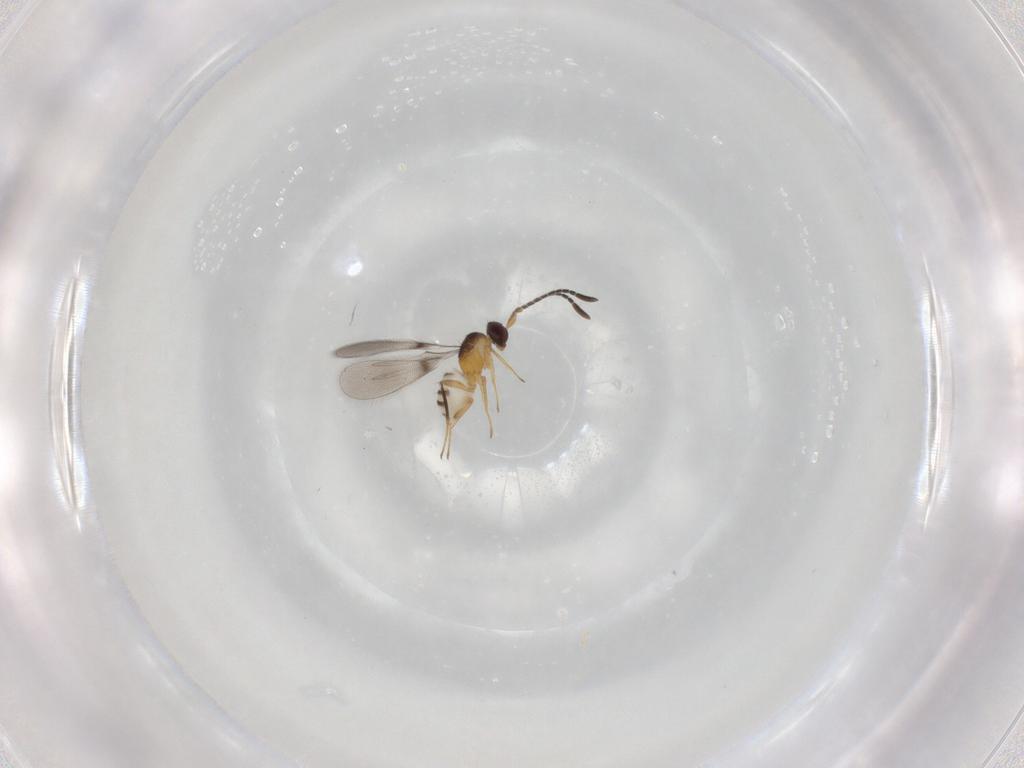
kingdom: Animalia
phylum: Arthropoda
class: Insecta
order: Hymenoptera
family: Mymaridae
